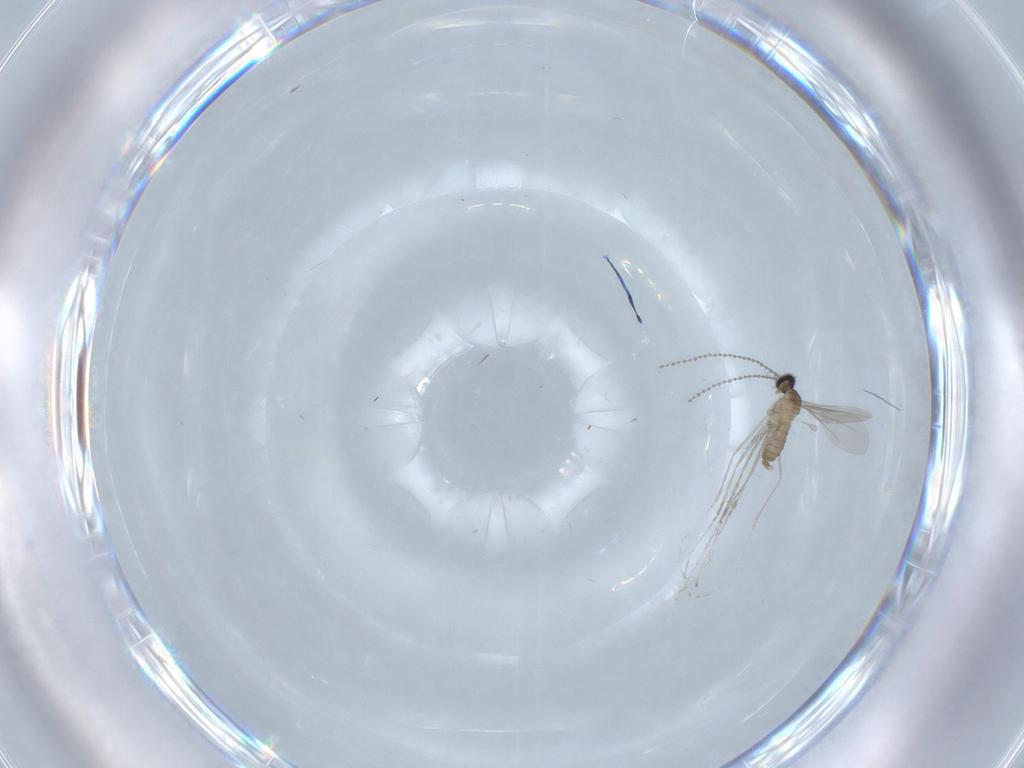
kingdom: Animalia
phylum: Arthropoda
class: Insecta
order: Diptera
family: Cecidomyiidae
